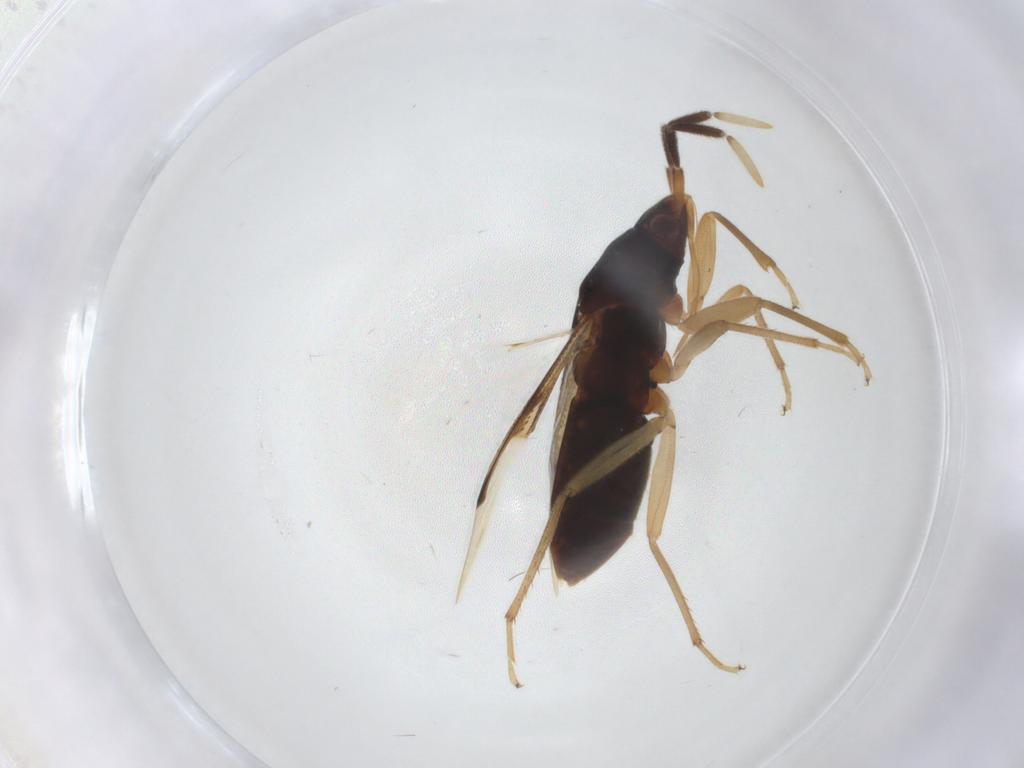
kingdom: Animalia
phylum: Arthropoda
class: Insecta
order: Hemiptera
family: Rhyparochromidae
